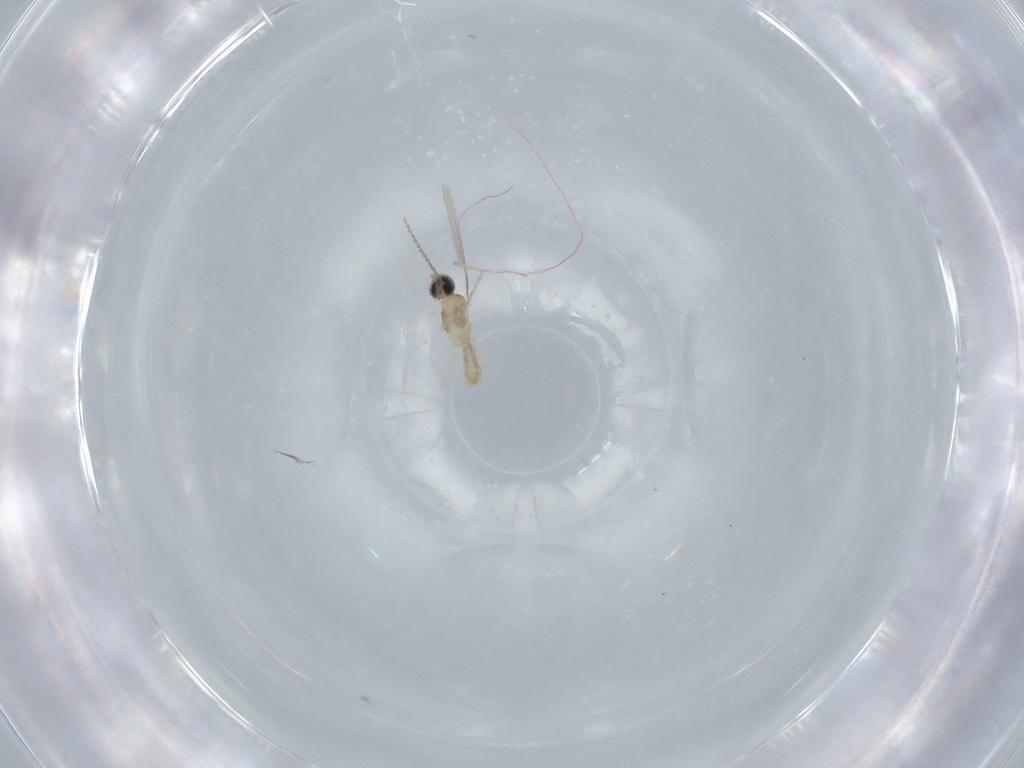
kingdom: Animalia
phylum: Arthropoda
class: Insecta
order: Diptera
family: Cecidomyiidae
